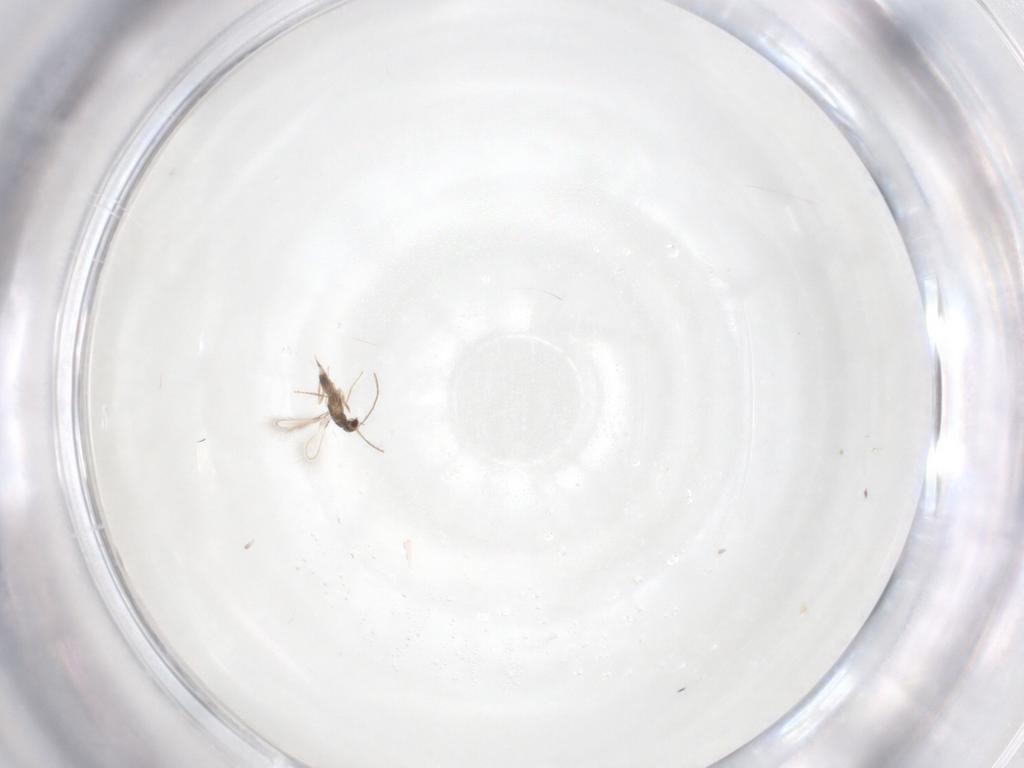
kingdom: Animalia
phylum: Arthropoda
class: Insecta
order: Hymenoptera
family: Mymaridae
